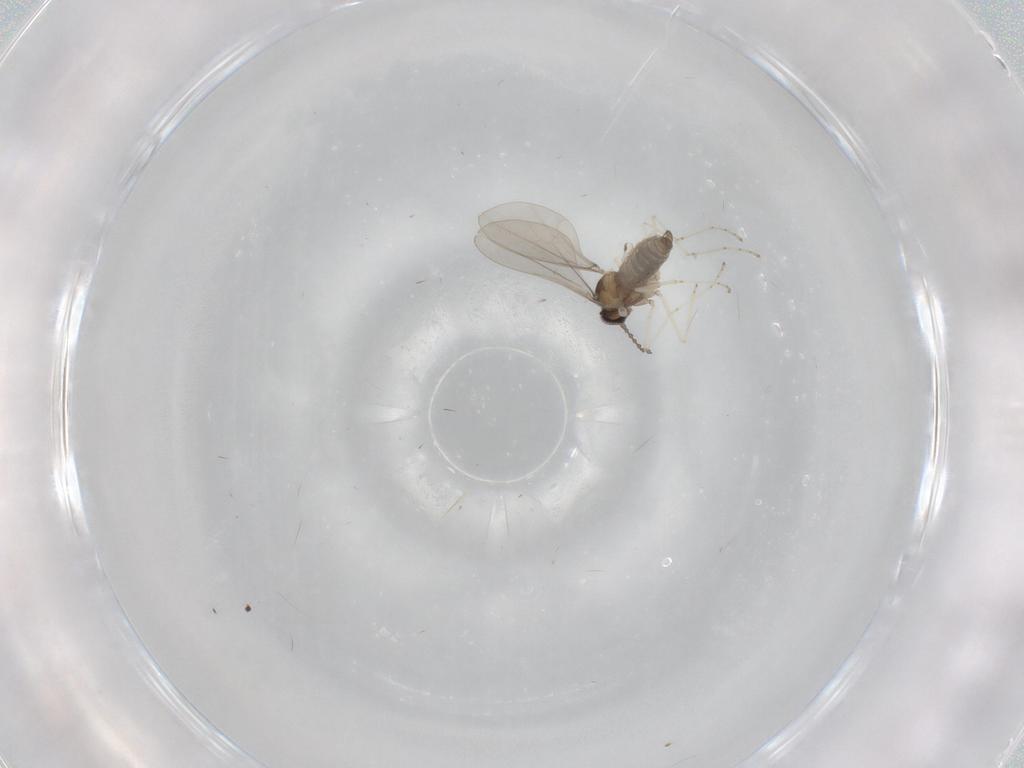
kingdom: Animalia
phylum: Arthropoda
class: Insecta
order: Diptera
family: Cecidomyiidae
